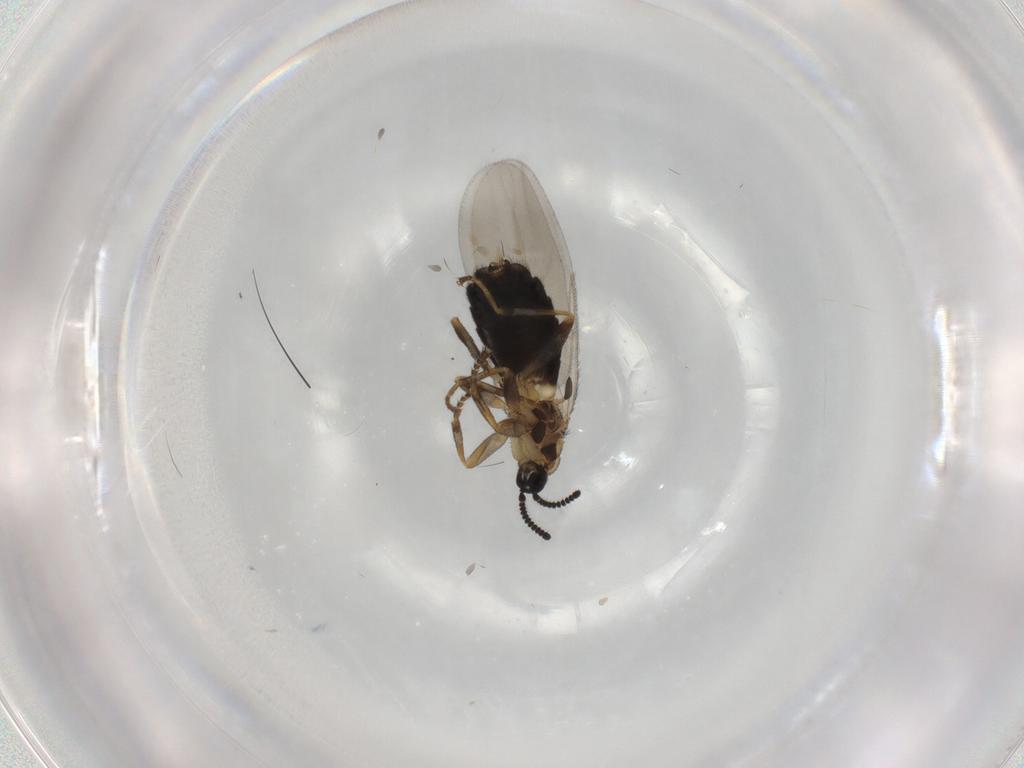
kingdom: Animalia
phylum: Arthropoda
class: Insecta
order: Diptera
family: Scatopsidae
